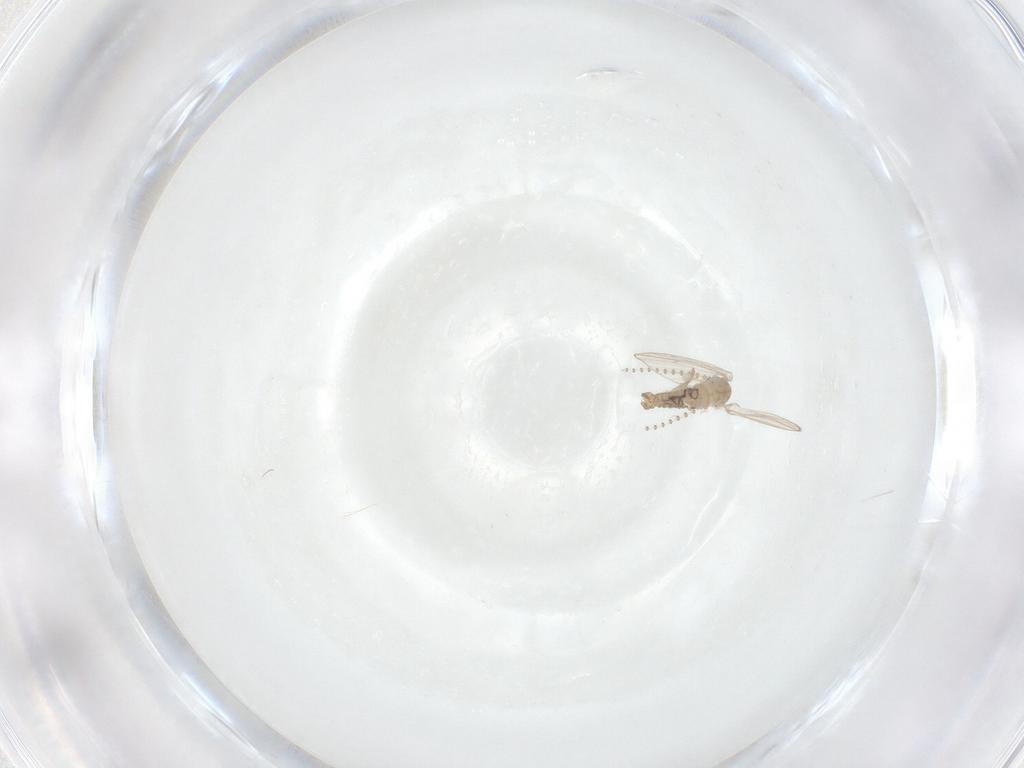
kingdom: Animalia
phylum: Arthropoda
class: Insecta
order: Diptera
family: Psychodidae
